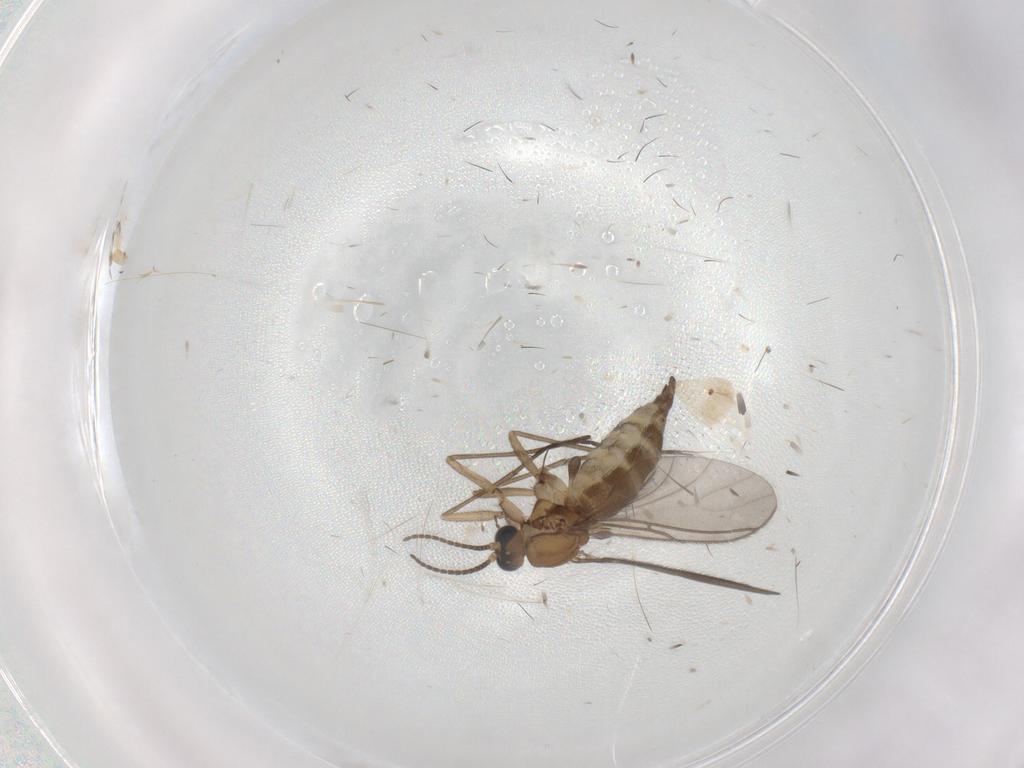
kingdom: Animalia
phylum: Arthropoda
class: Insecta
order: Diptera
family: Sciaridae
